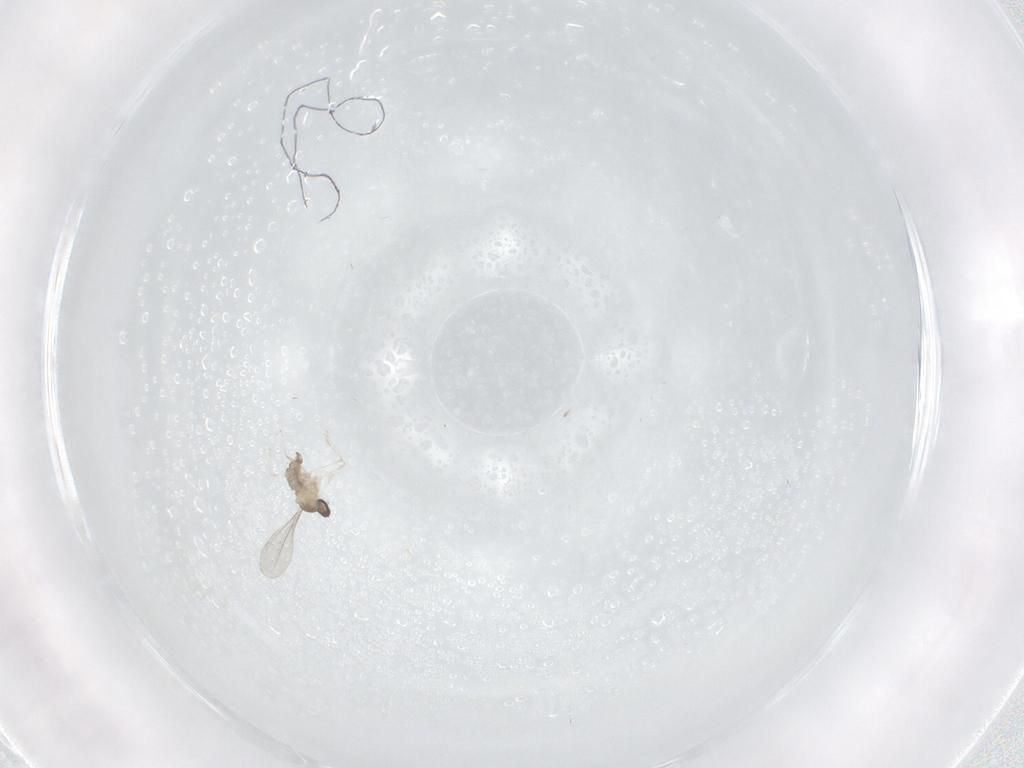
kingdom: Animalia
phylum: Arthropoda
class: Insecta
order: Diptera
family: Cecidomyiidae
